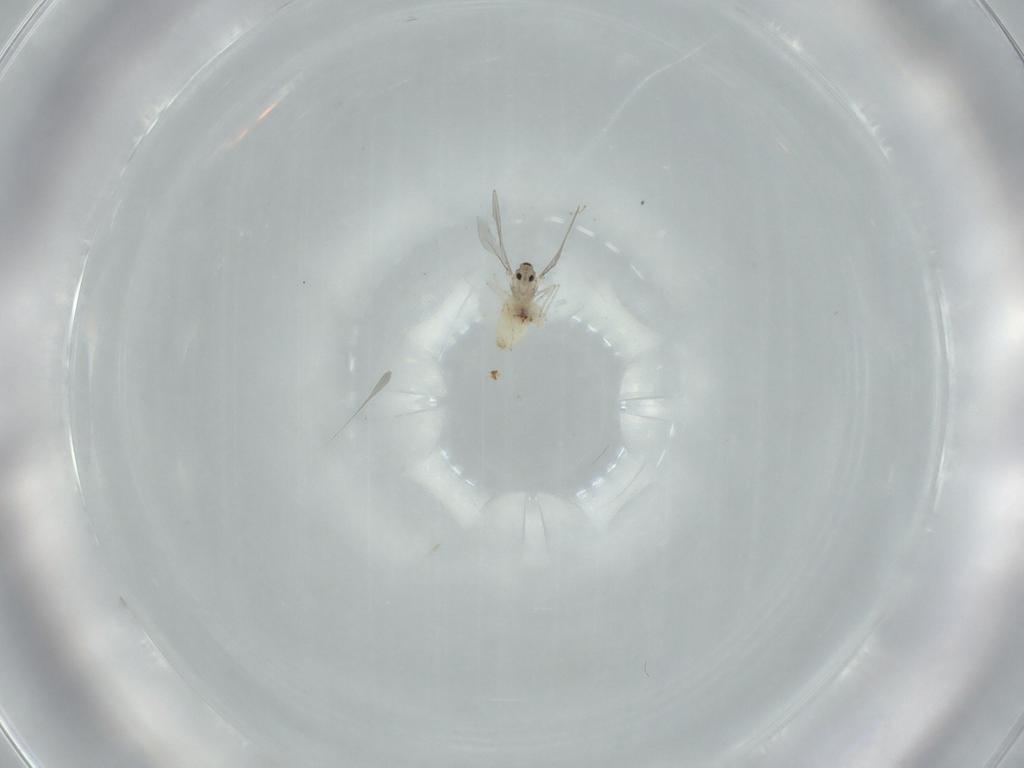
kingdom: Animalia
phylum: Arthropoda
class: Insecta
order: Diptera
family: Cecidomyiidae
